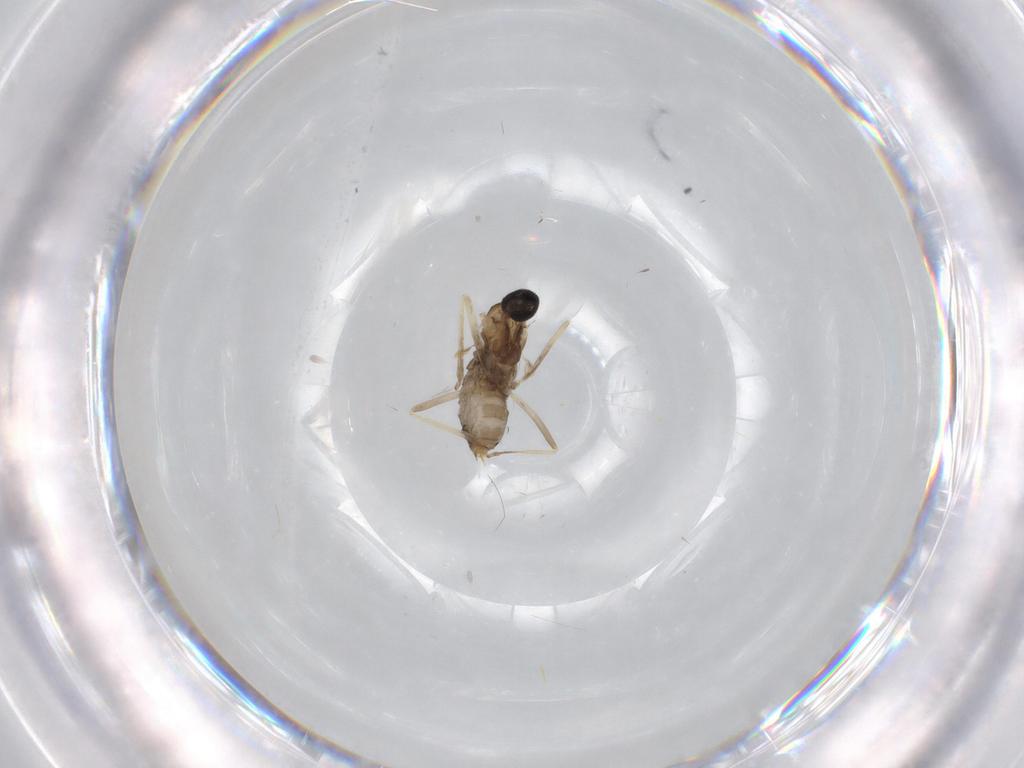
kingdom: Animalia
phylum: Arthropoda
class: Insecta
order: Diptera
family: Cecidomyiidae
